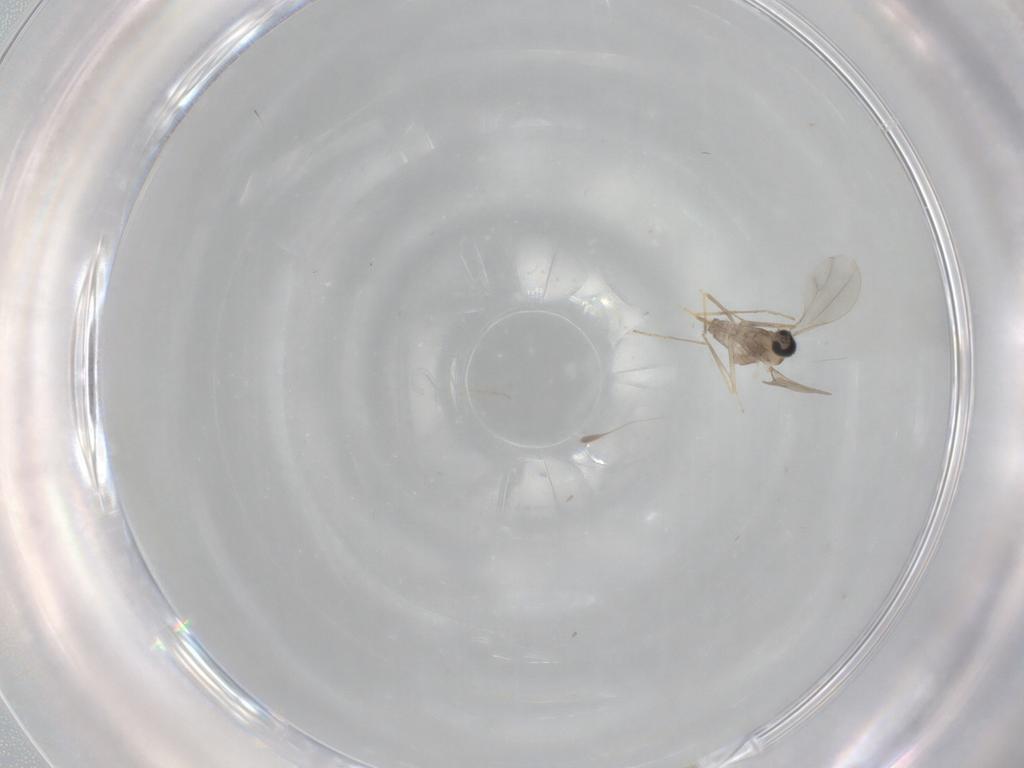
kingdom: Animalia
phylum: Arthropoda
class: Insecta
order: Diptera
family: Cecidomyiidae
